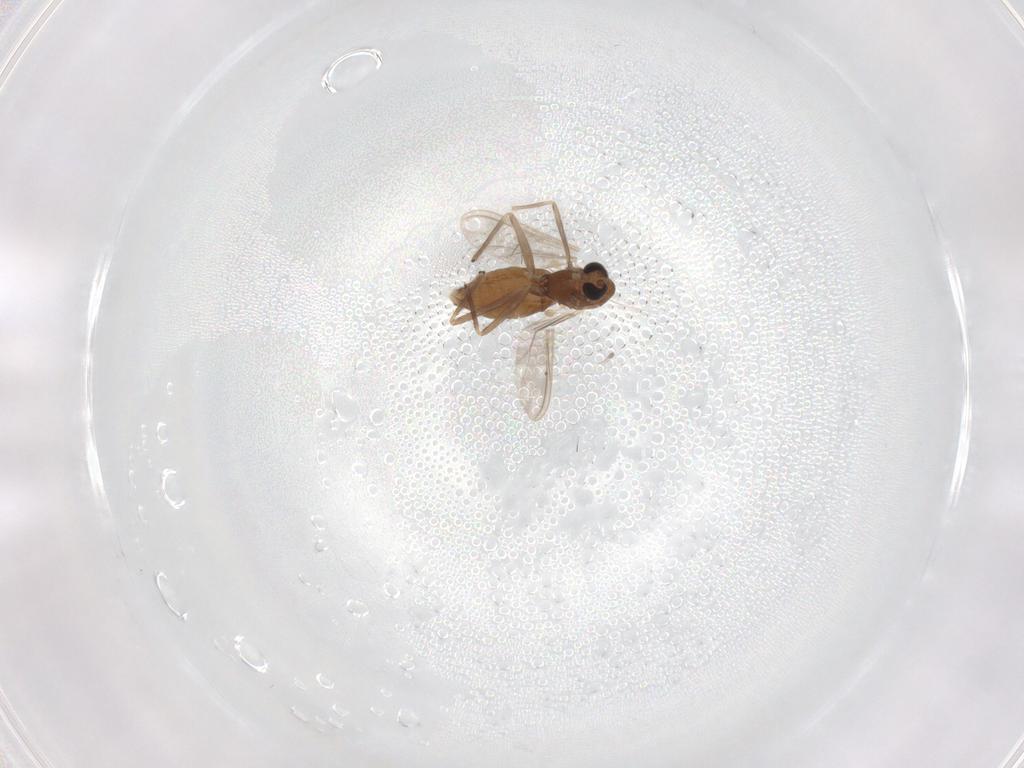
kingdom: Animalia
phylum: Arthropoda
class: Insecta
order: Diptera
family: Chironomidae
